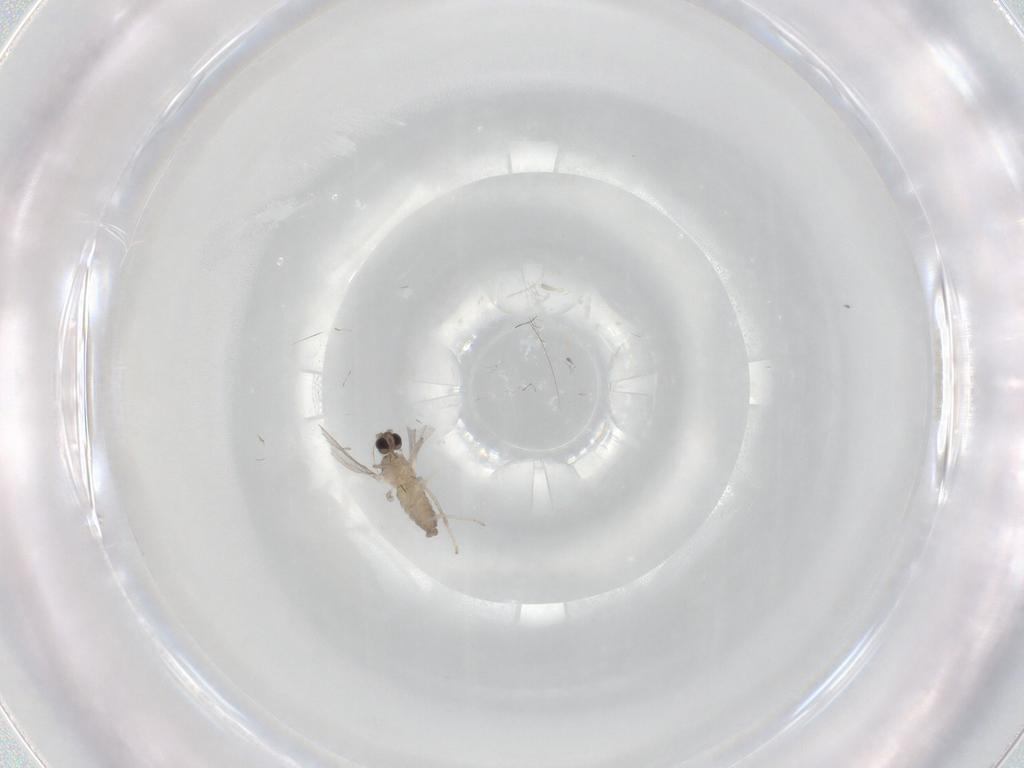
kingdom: Animalia
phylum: Arthropoda
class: Insecta
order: Diptera
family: Cecidomyiidae
